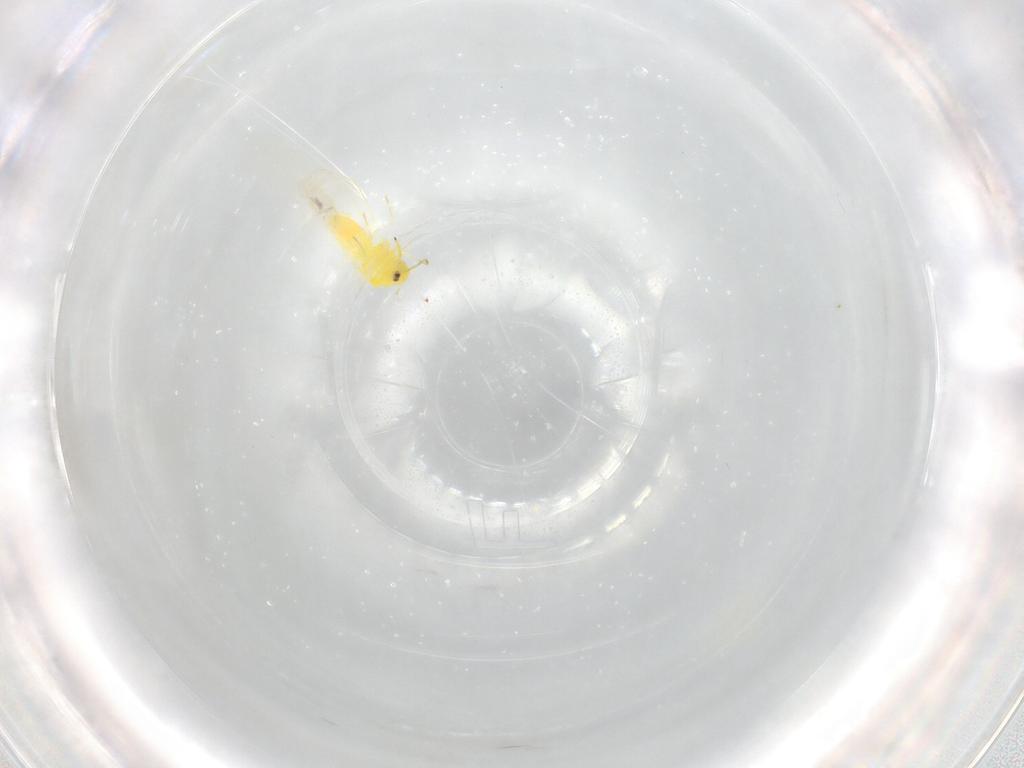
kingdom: Animalia
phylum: Arthropoda
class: Insecta
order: Hemiptera
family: Aleyrodidae
